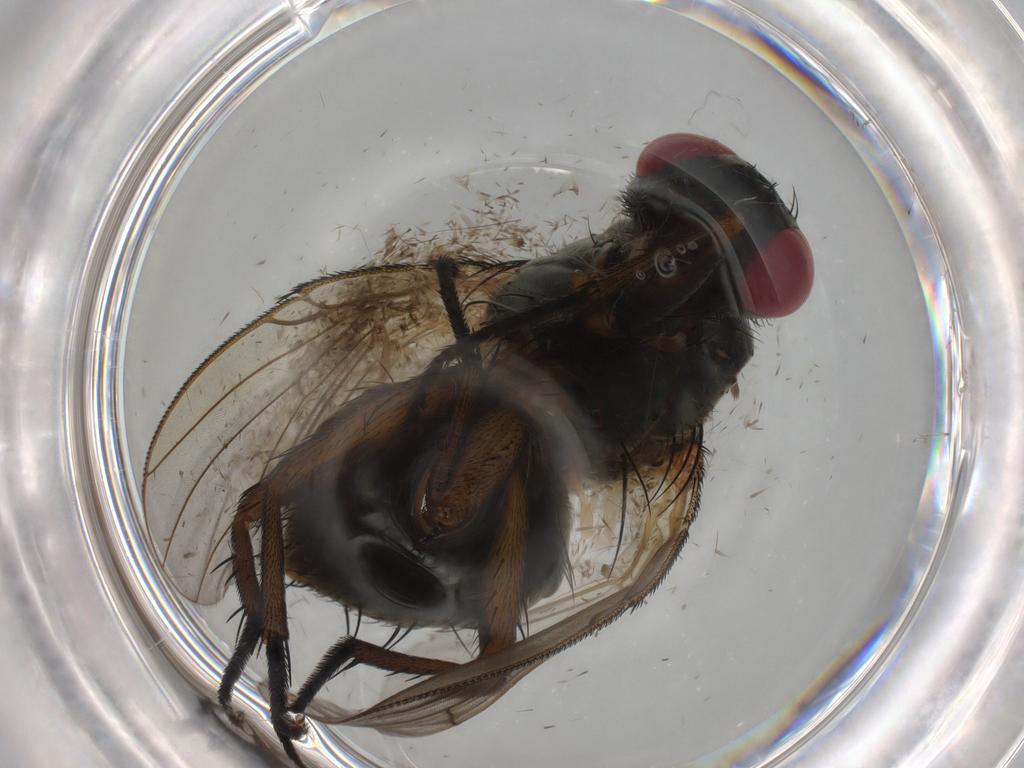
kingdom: Animalia
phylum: Arthropoda
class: Insecta
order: Diptera
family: Muscidae
